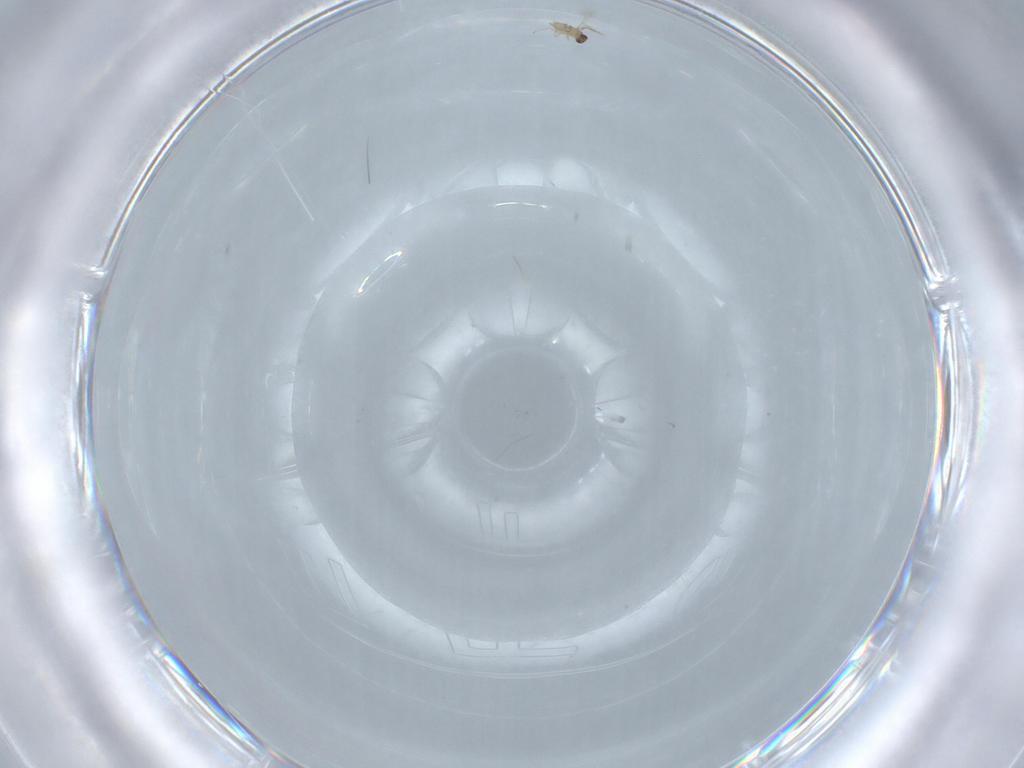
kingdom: Animalia
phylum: Arthropoda
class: Insecta
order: Hymenoptera
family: Mymaridae
